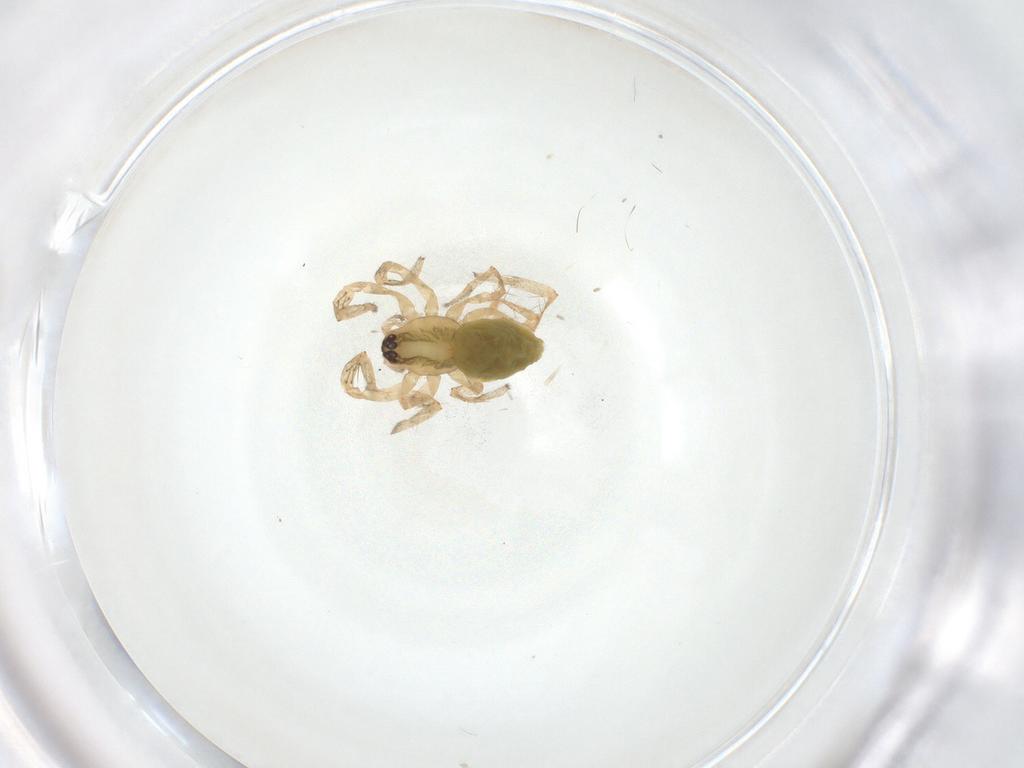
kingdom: Animalia
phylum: Arthropoda
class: Arachnida
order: Araneae
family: Anyphaenidae
